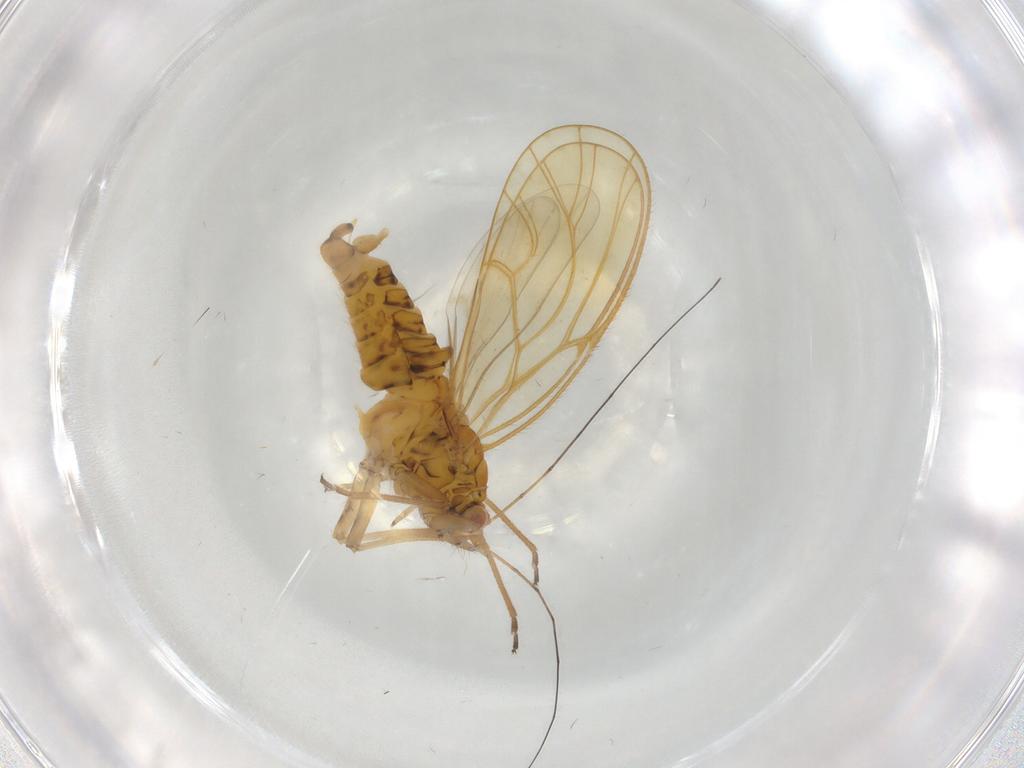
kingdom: Animalia
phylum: Arthropoda
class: Insecta
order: Hemiptera
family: Psyllidae
